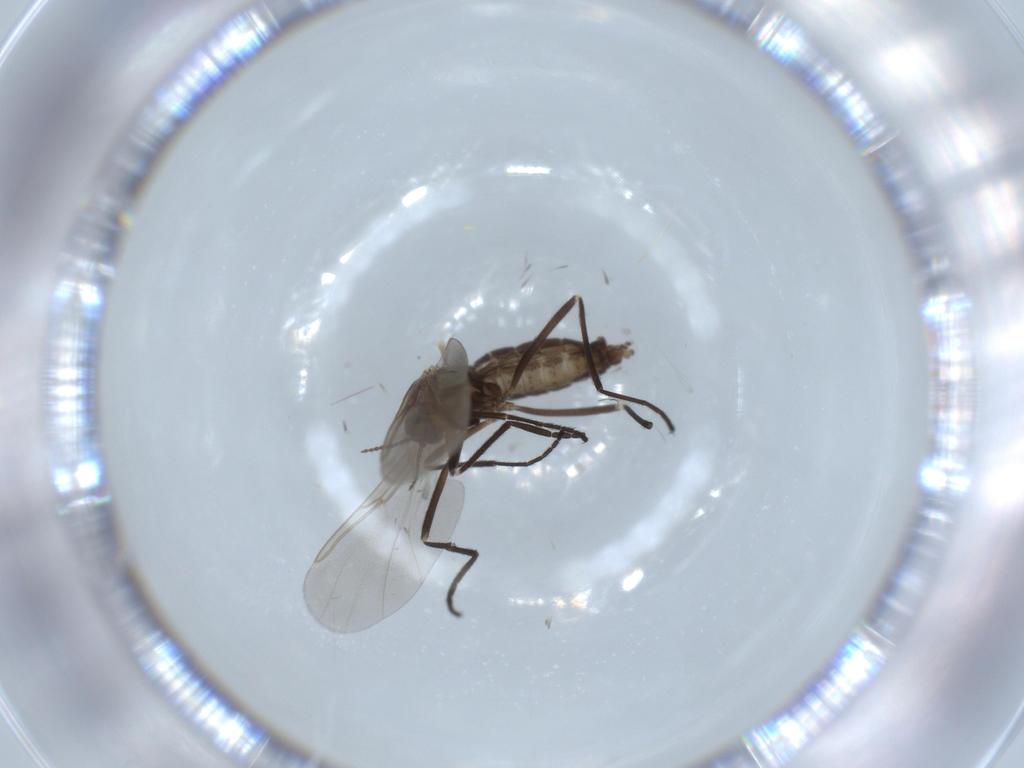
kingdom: Animalia
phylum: Arthropoda
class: Insecta
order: Diptera
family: Cecidomyiidae
